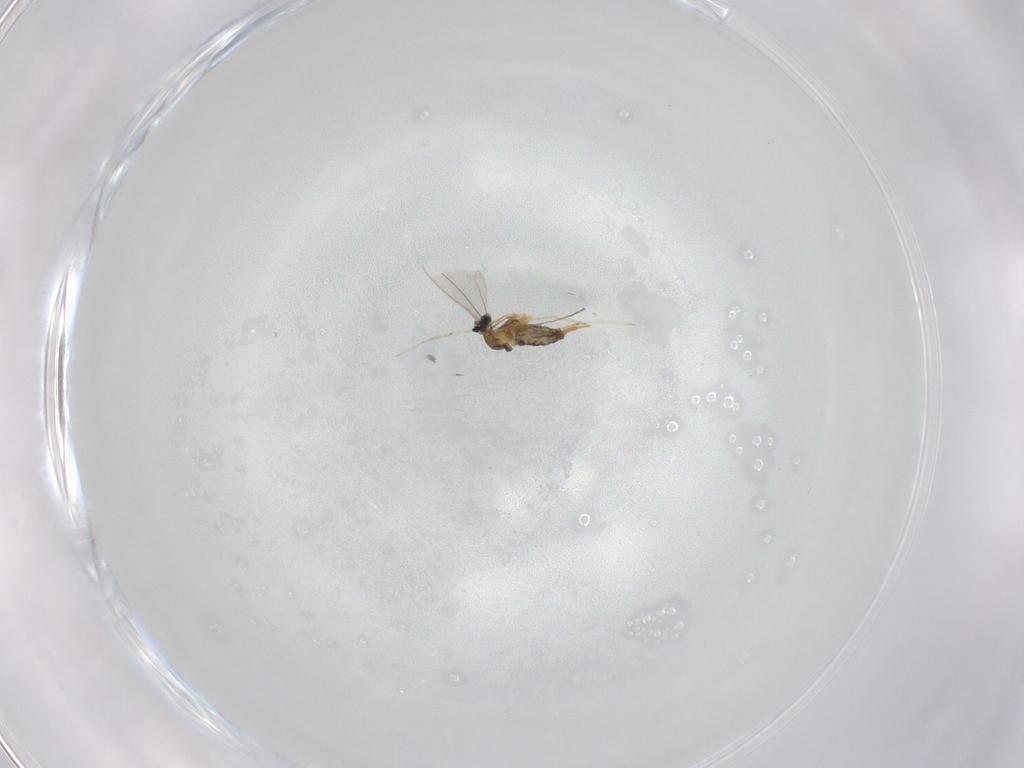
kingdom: Animalia
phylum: Arthropoda
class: Insecta
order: Diptera
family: Cecidomyiidae
